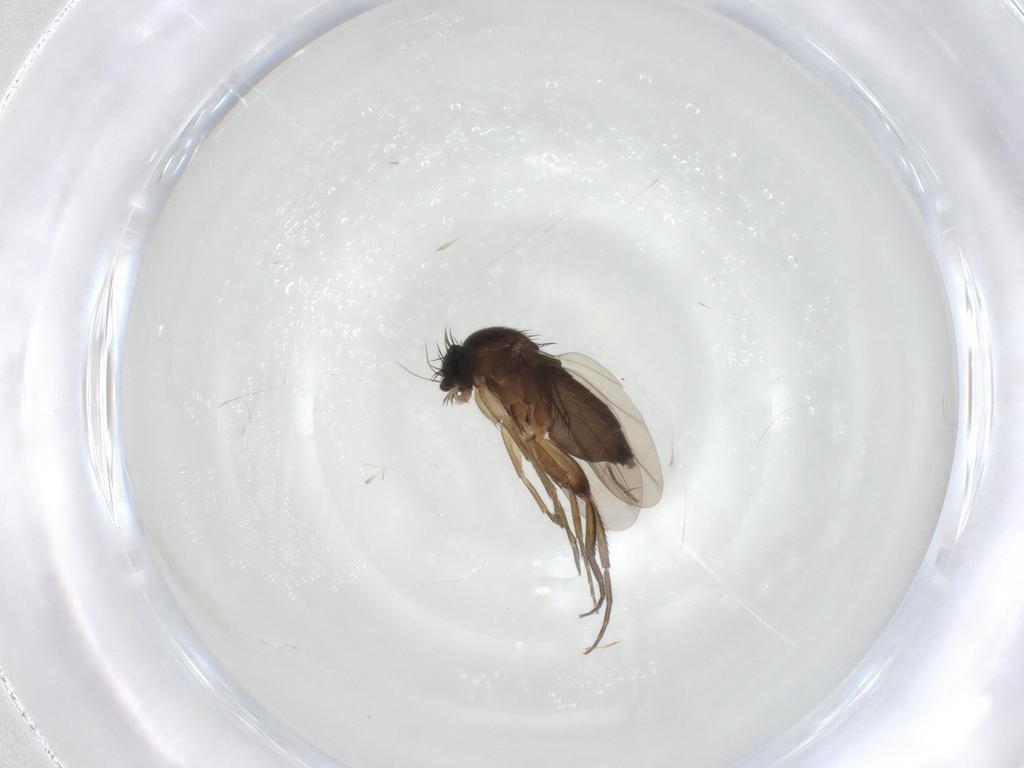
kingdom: Animalia
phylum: Arthropoda
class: Insecta
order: Diptera
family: Phoridae
